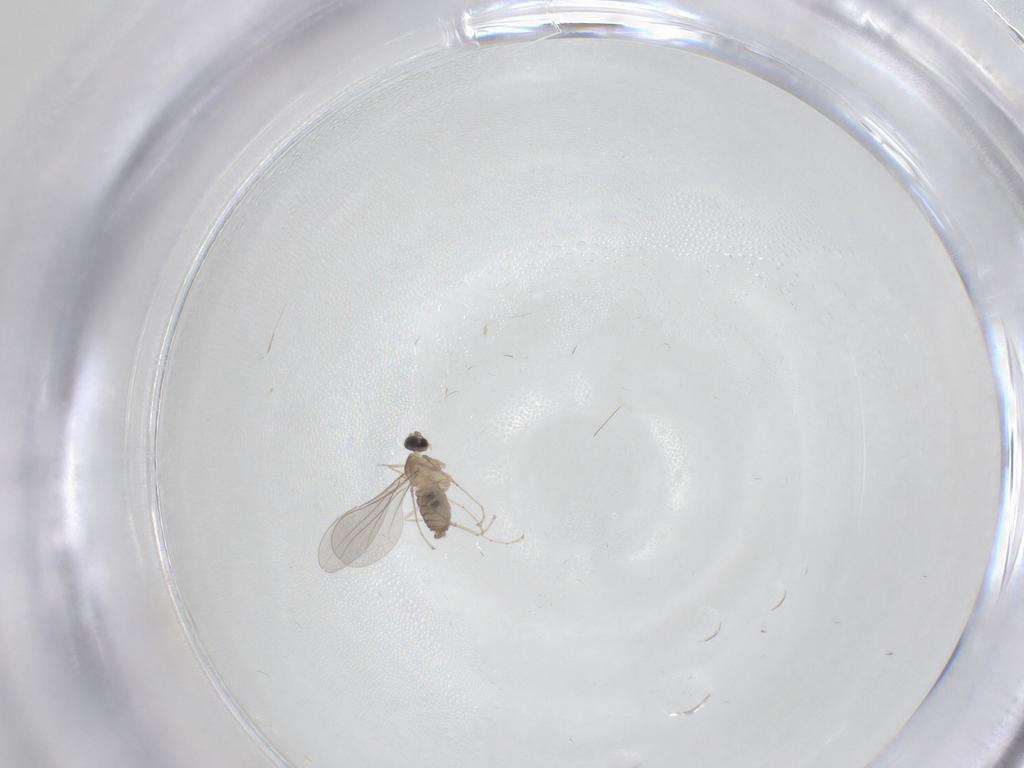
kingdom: Animalia
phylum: Arthropoda
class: Insecta
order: Diptera
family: Cecidomyiidae
